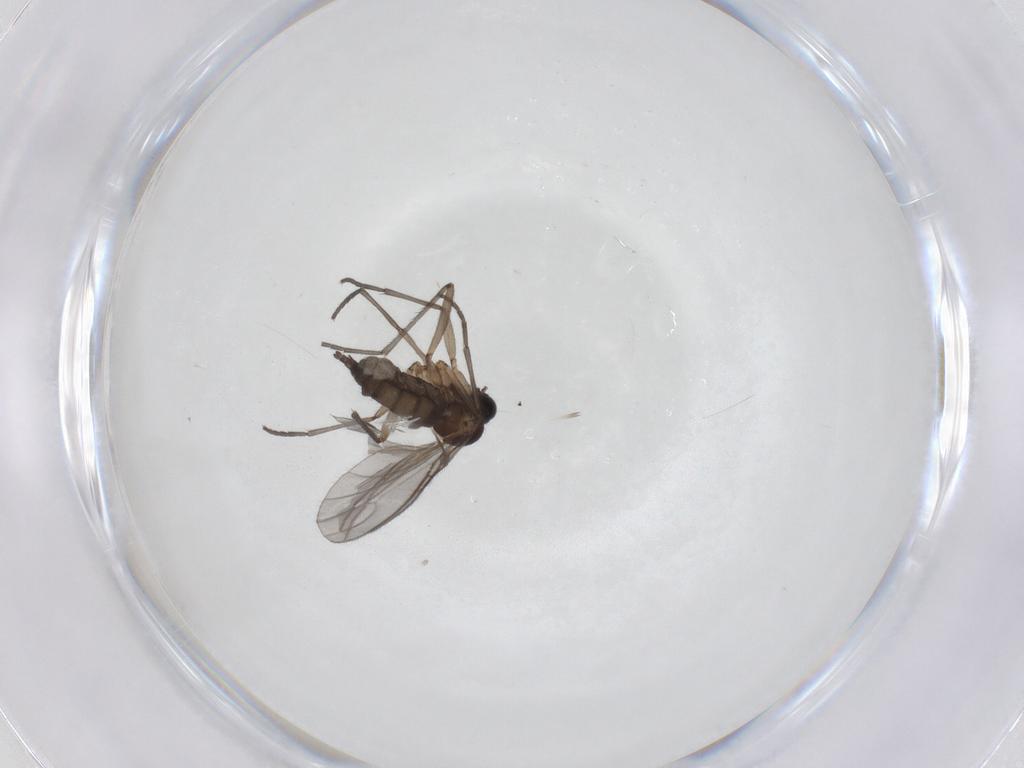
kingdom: Animalia
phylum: Arthropoda
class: Insecta
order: Diptera
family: Sciaridae
